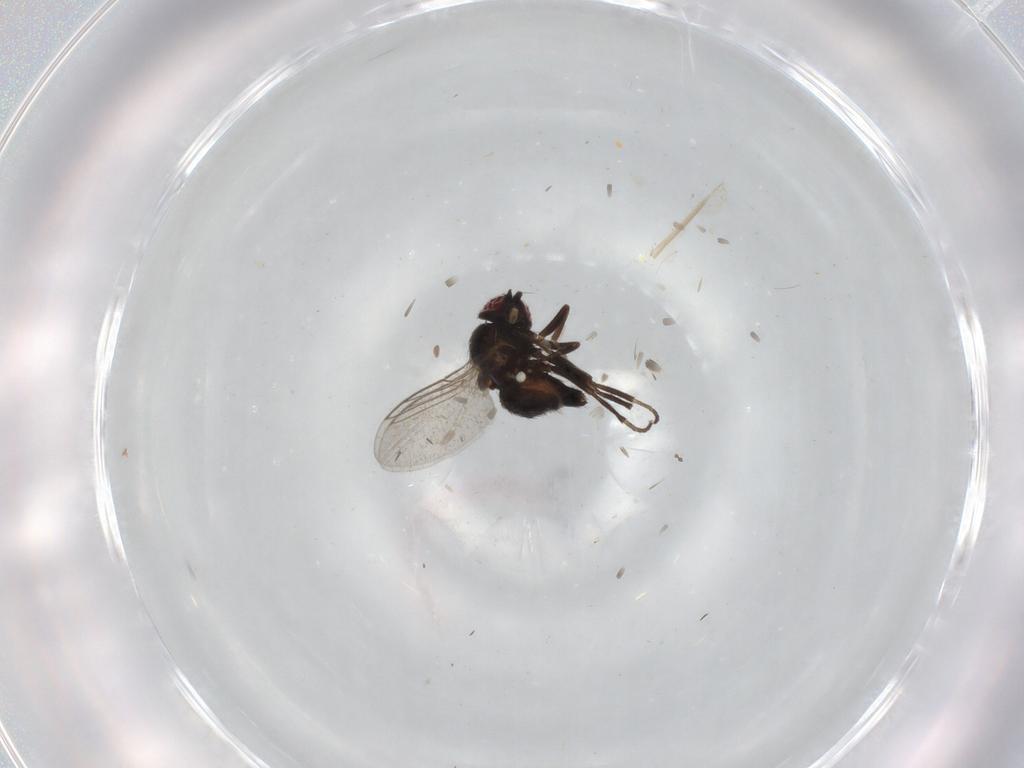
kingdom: Animalia
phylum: Arthropoda
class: Insecta
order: Diptera
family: Cecidomyiidae
